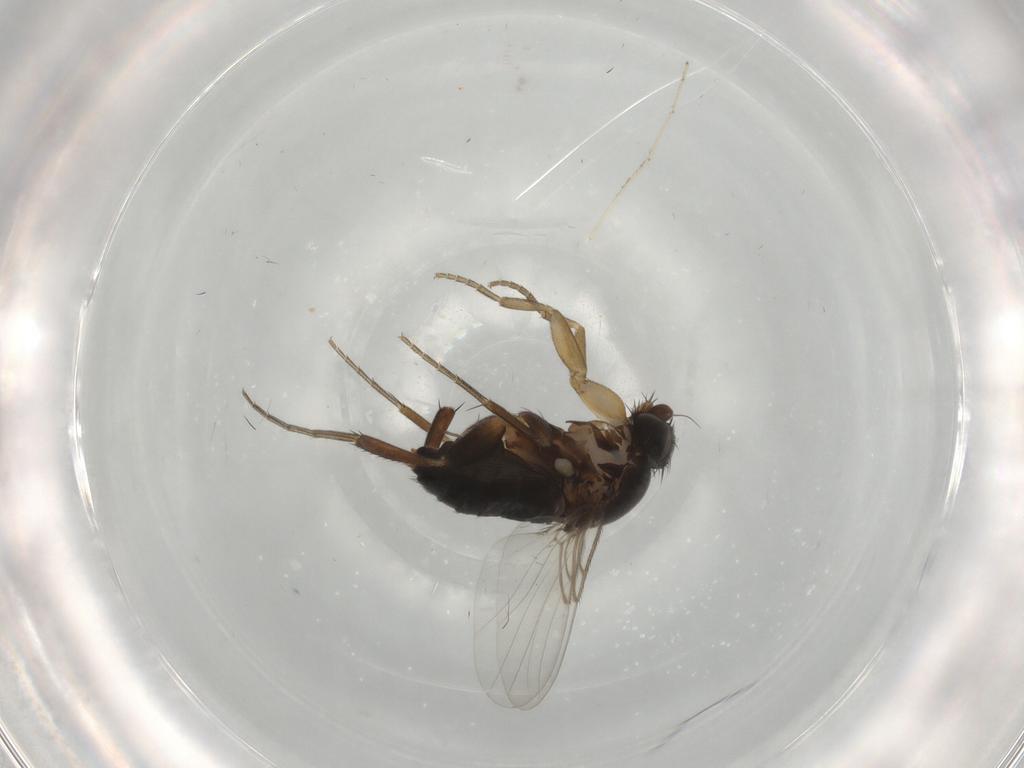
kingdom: Animalia
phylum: Arthropoda
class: Insecta
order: Diptera
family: Phoridae
